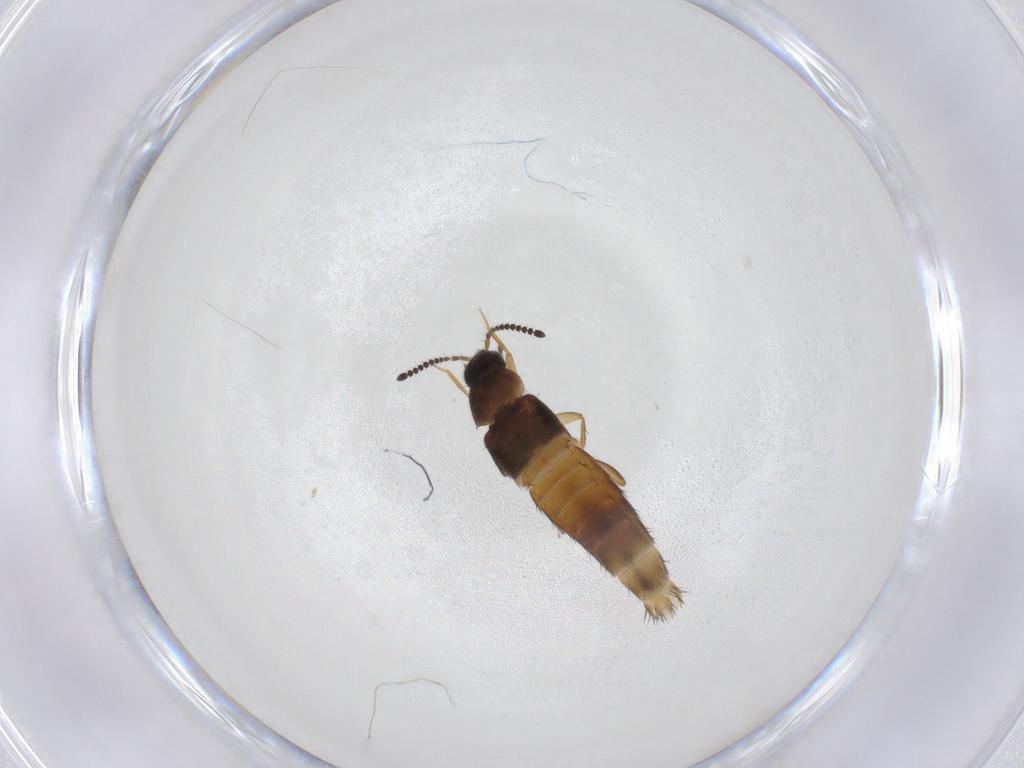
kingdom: Animalia
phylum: Arthropoda
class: Insecta
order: Coleoptera
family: Staphylinidae
